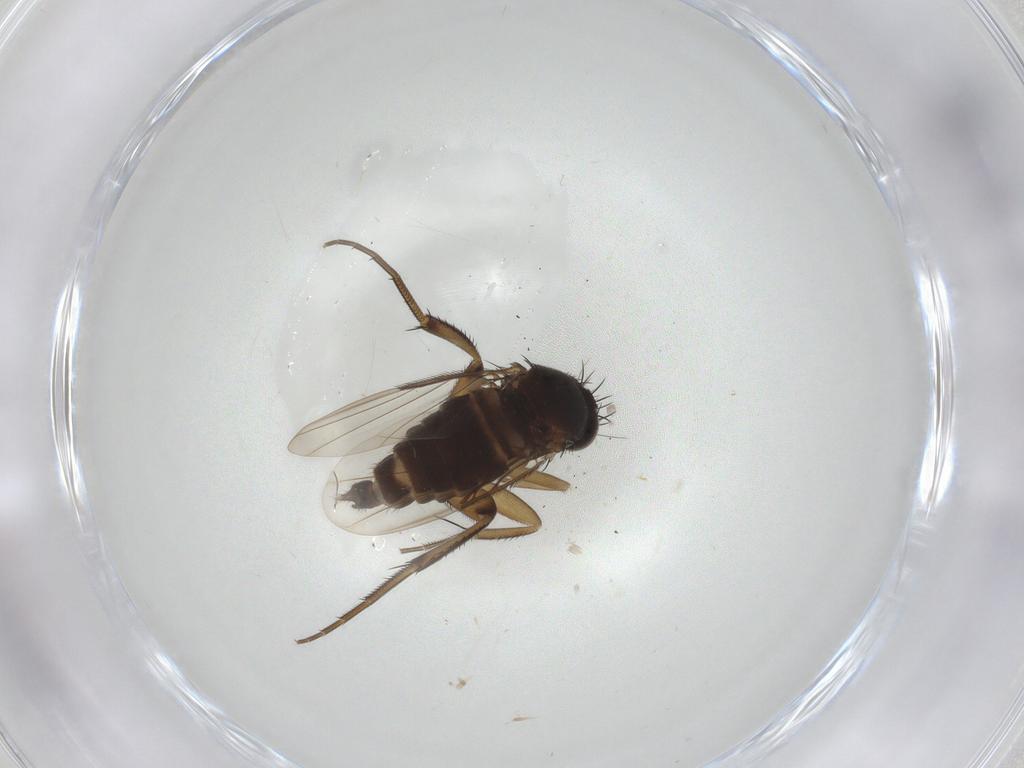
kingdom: Animalia
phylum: Arthropoda
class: Insecta
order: Diptera
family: Phoridae
